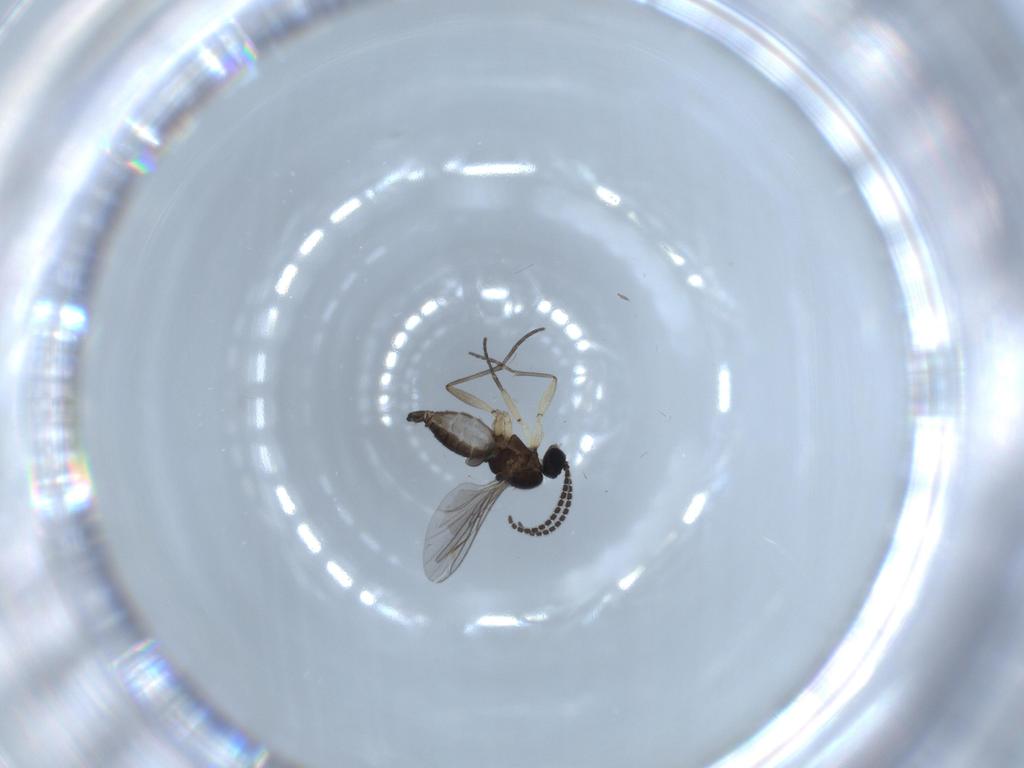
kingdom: Animalia
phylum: Arthropoda
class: Insecta
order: Diptera
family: Sciaridae
